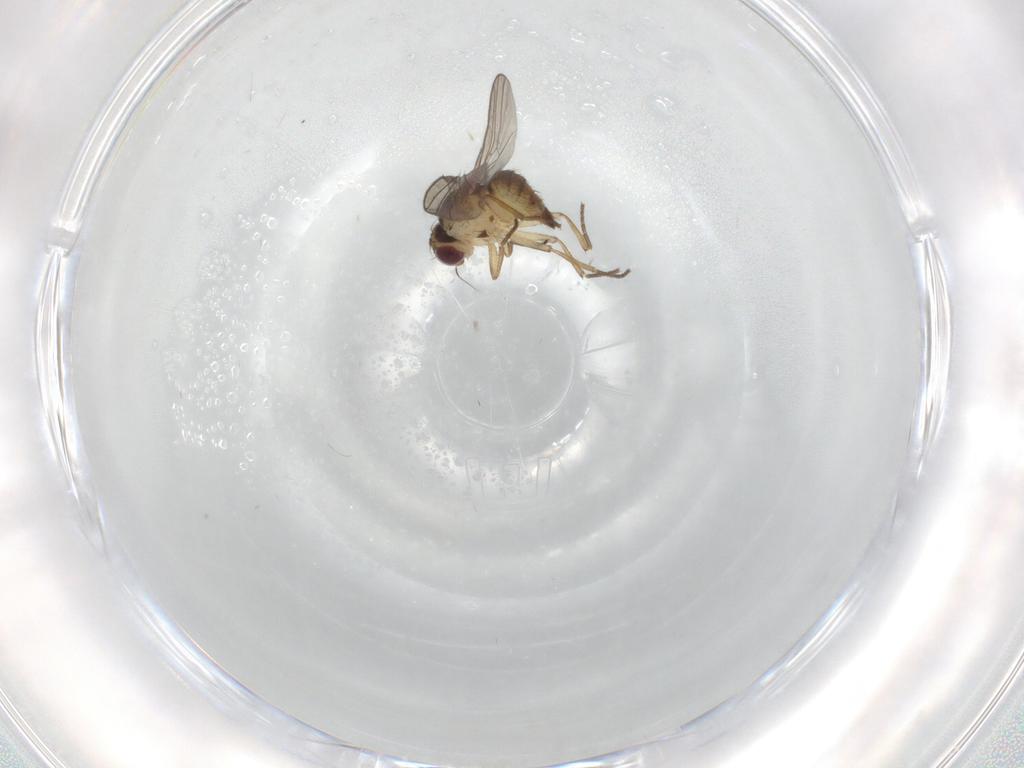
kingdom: Animalia
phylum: Arthropoda
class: Insecta
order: Diptera
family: Agromyzidae
